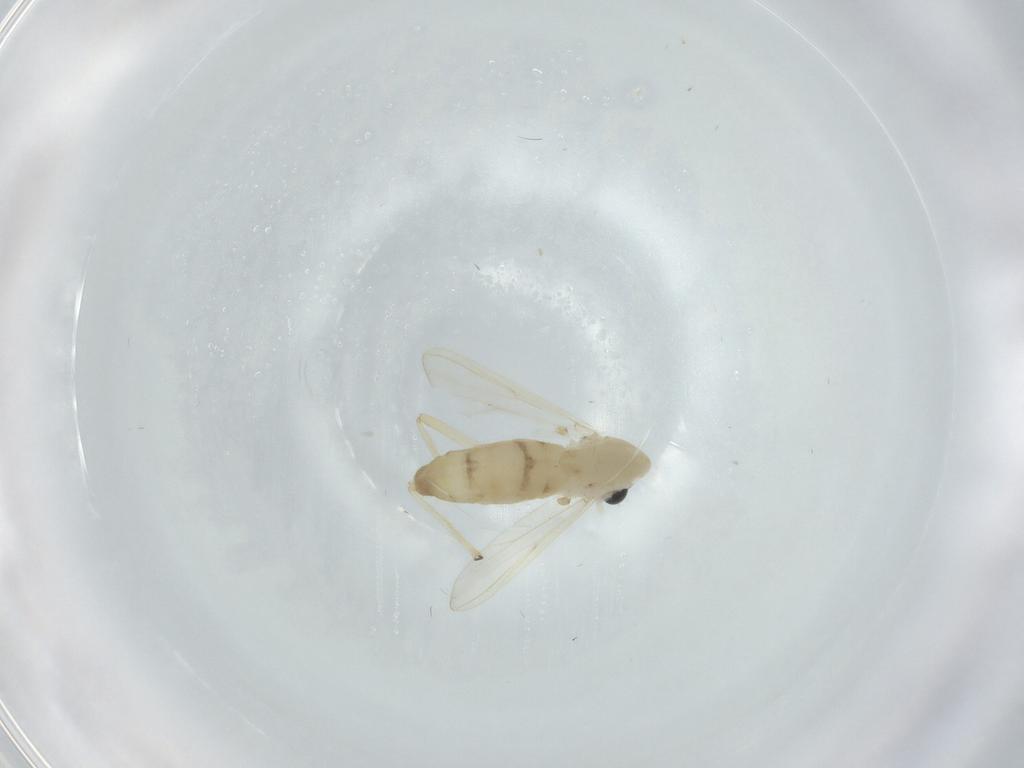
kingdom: Animalia
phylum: Arthropoda
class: Insecta
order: Diptera
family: Chironomidae
